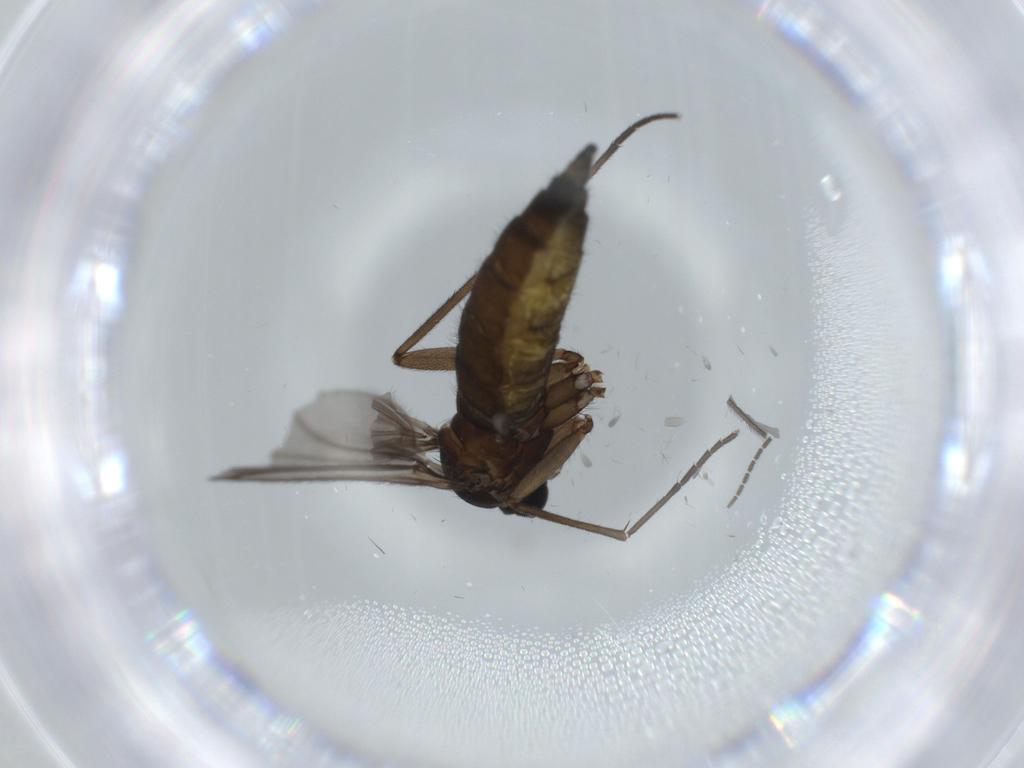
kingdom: Animalia
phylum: Arthropoda
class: Insecta
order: Diptera
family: Sciaridae
